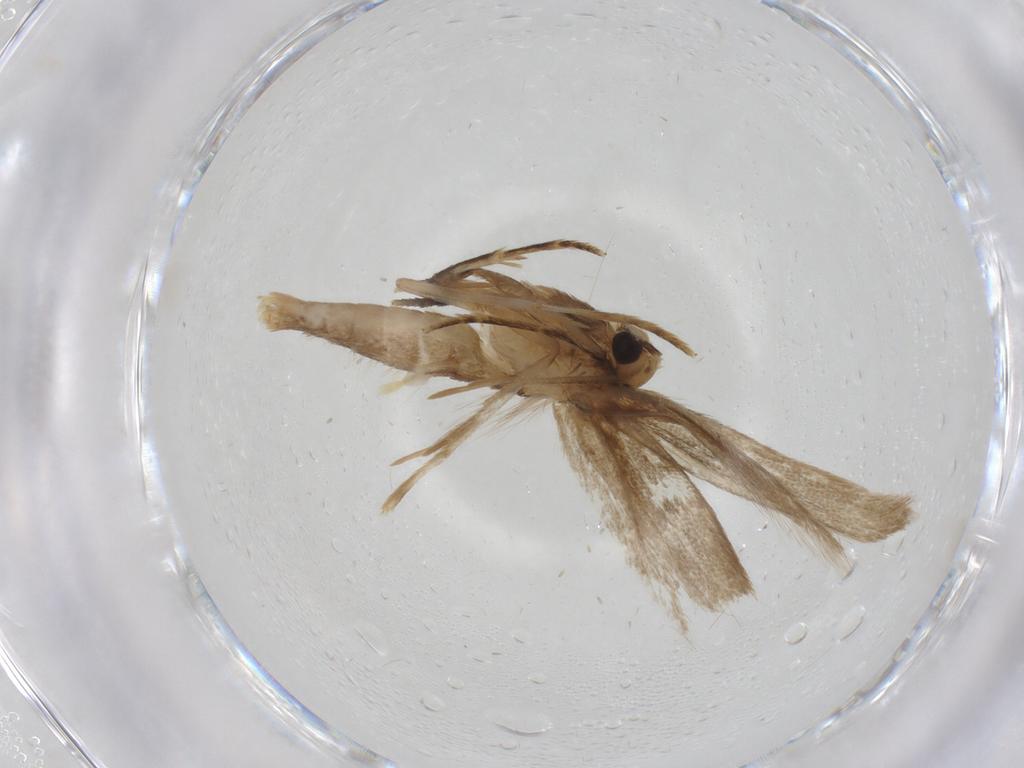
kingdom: Animalia
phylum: Arthropoda
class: Insecta
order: Lepidoptera
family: Tineidae
